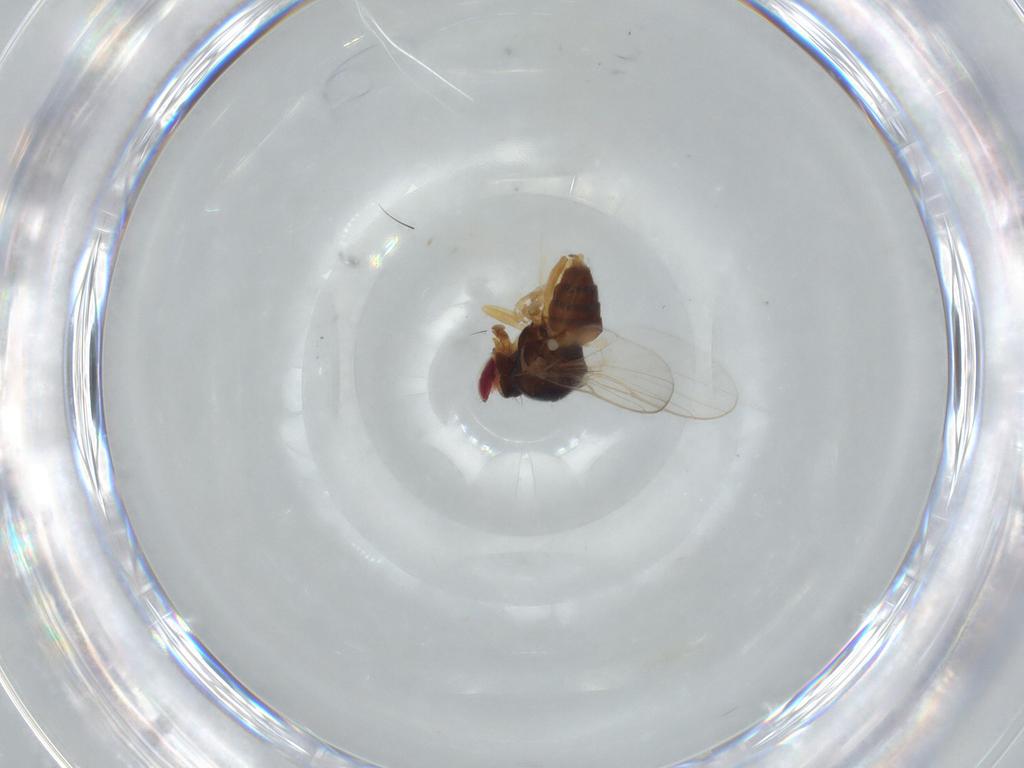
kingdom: Animalia
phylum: Arthropoda
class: Insecta
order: Diptera
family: Chloropidae
